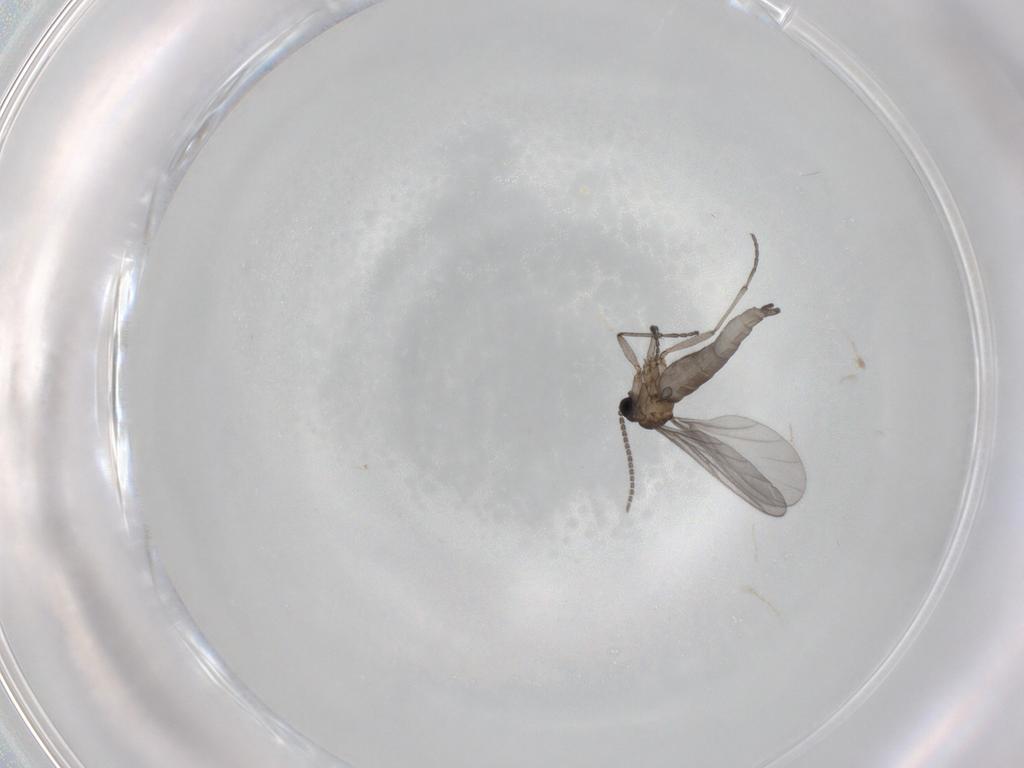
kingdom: Animalia
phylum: Arthropoda
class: Insecta
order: Diptera
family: Sciaridae
